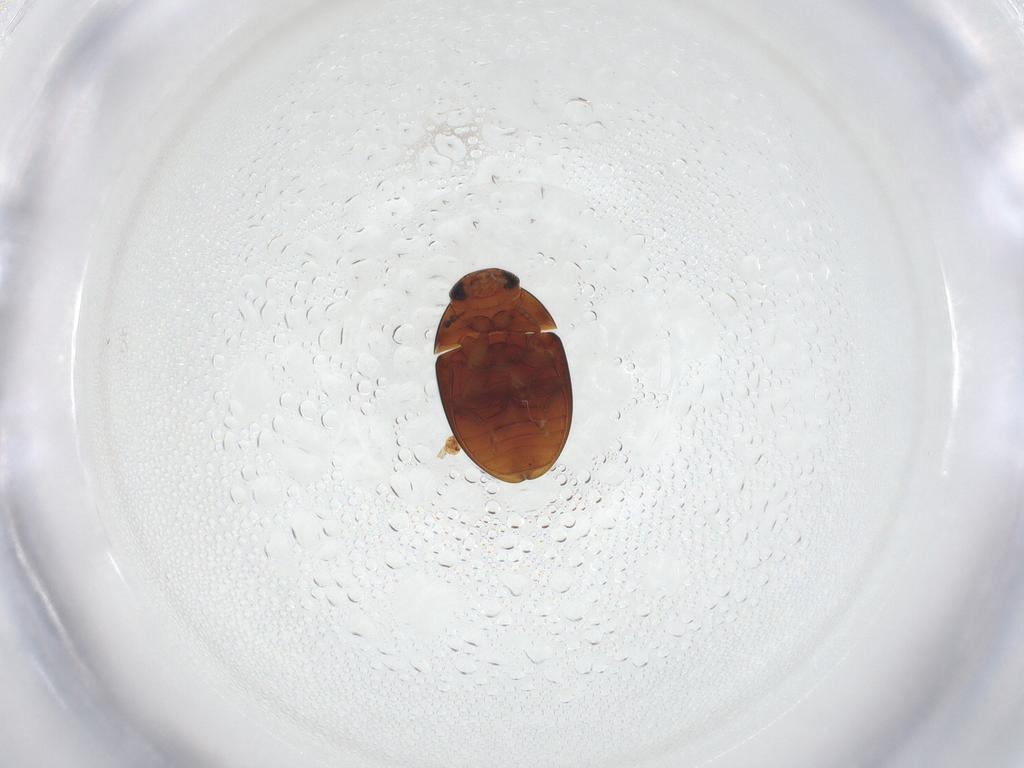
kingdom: Animalia
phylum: Arthropoda
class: Insecta
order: Coleoptera
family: Phalacridae
